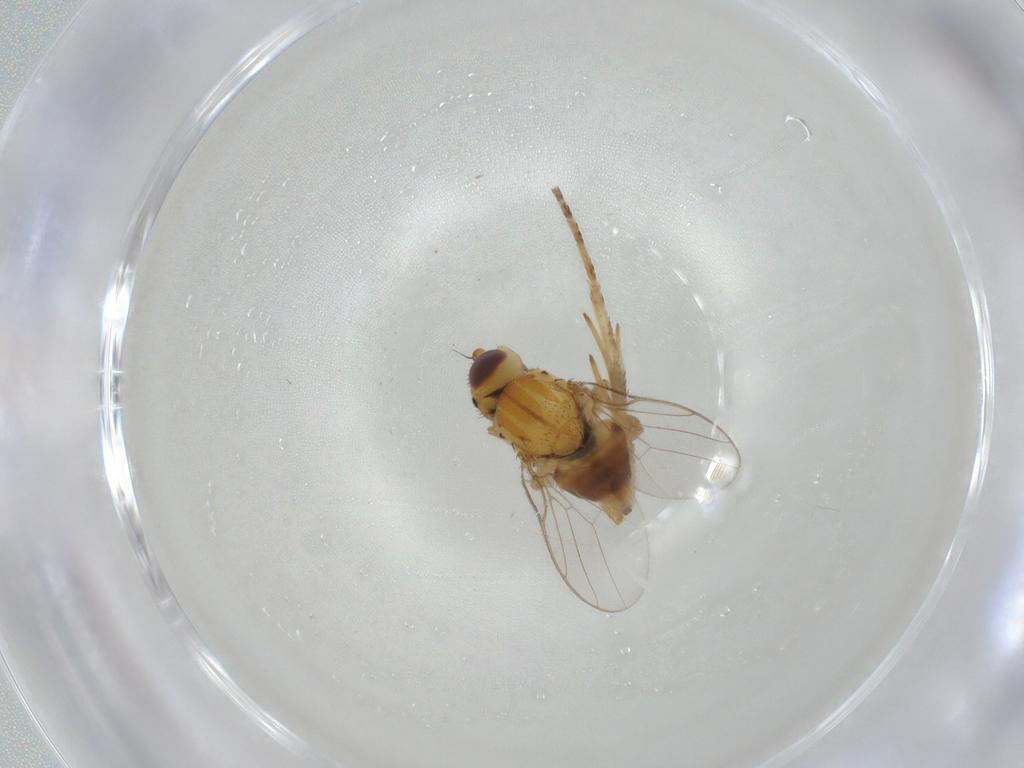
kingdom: Animalia
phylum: Arthropoda
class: Insecta
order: Diptera
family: Chloropidae
